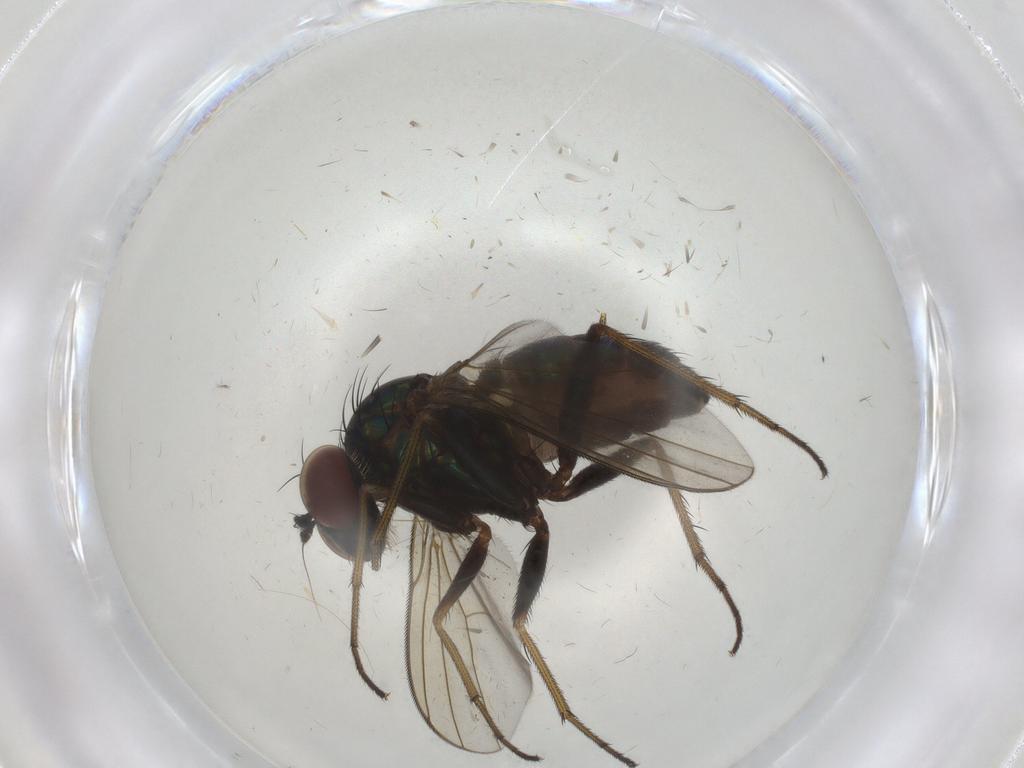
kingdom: Animalia
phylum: Arthropoda
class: Insecta
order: Diptera
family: Dolichopodidae
